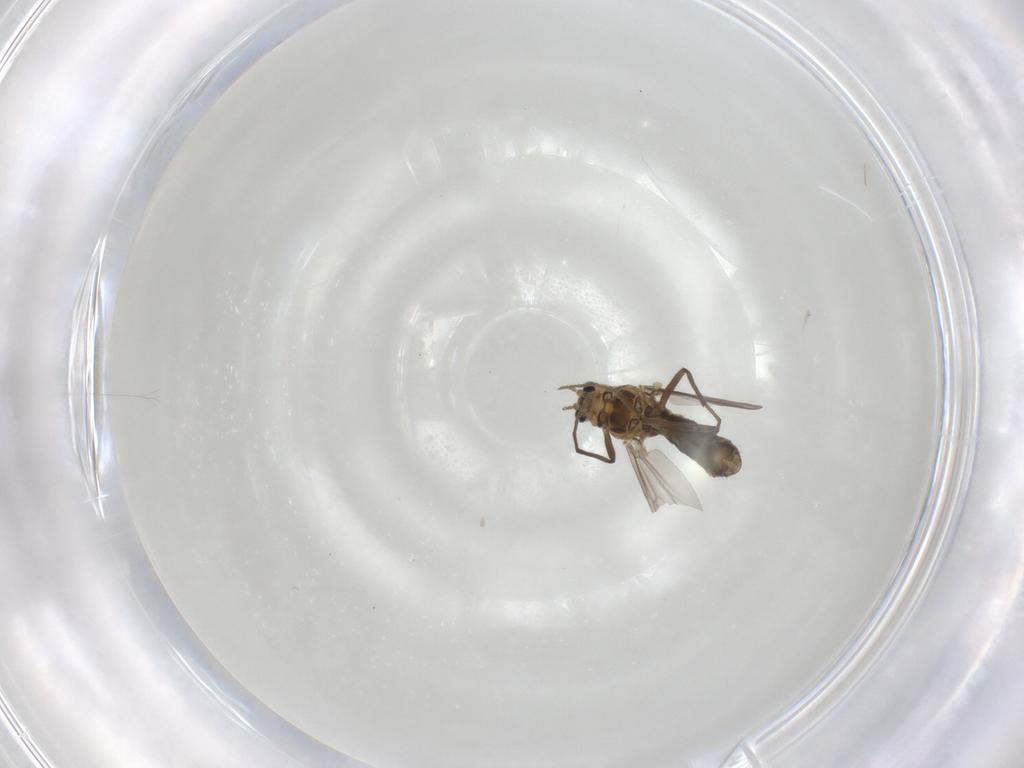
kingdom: Animalia
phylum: Arthropoda
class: Insecta
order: Diptera
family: Chironomidae
